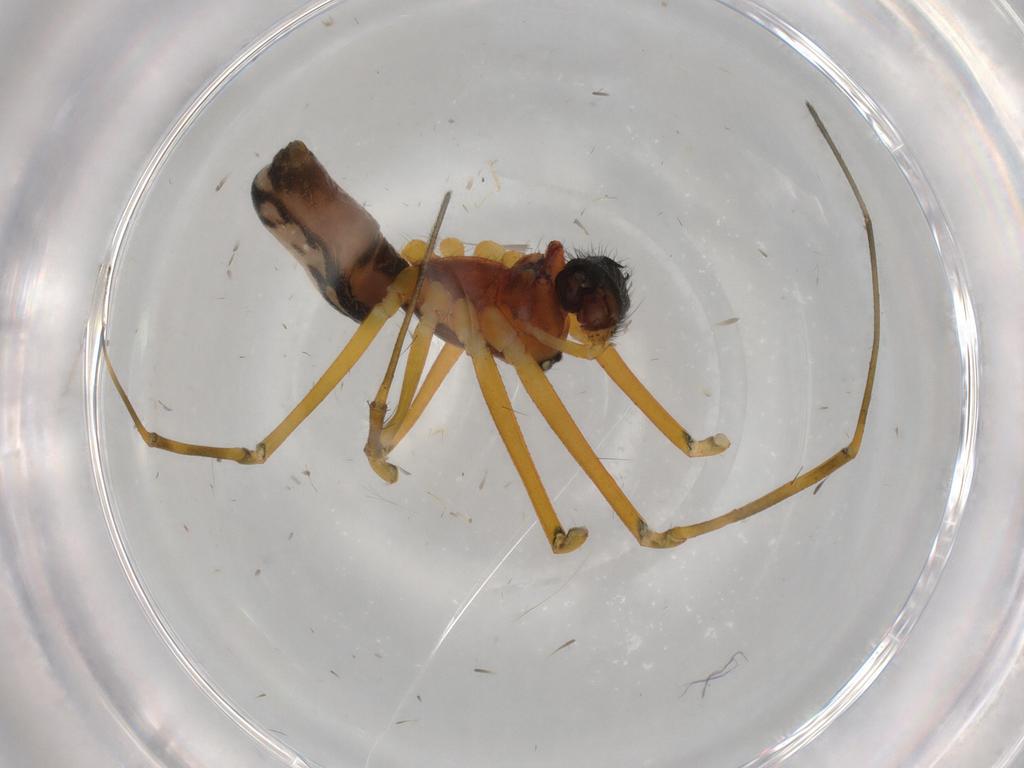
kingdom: Animalia
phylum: Arthropoda
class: Arachnida
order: Araneae
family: Linyphiidae
